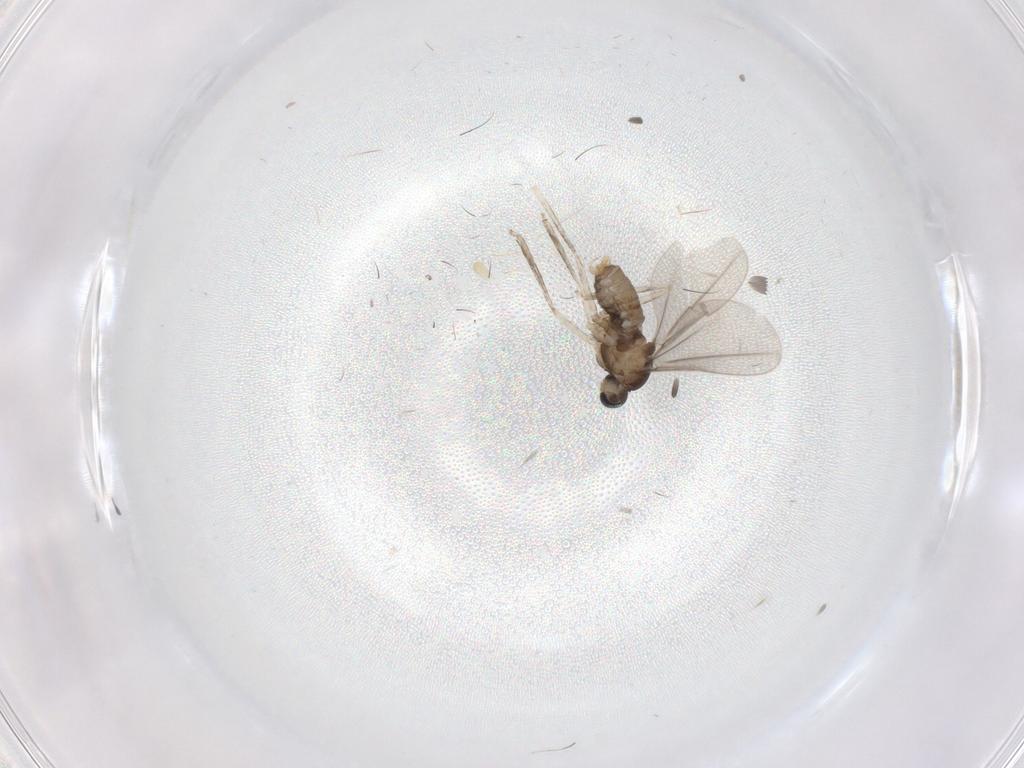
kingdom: Animalia
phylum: Arthropoda
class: Insecta
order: Diptera
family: Cecidomyiidae
